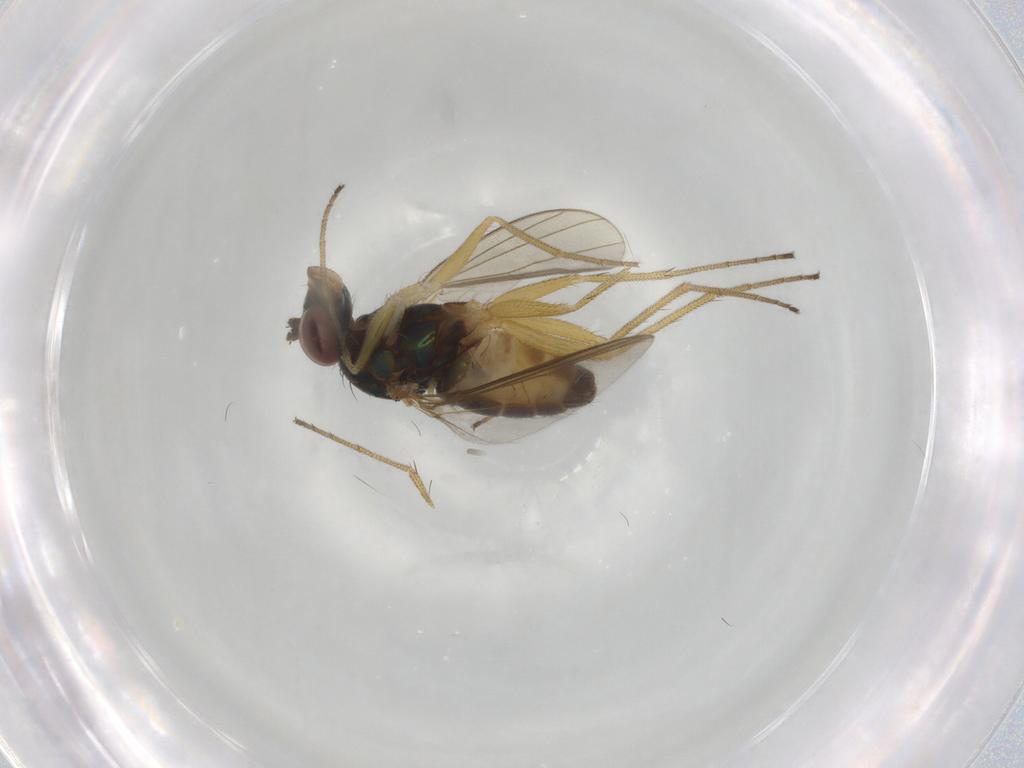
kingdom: Animalia
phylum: Arthropoda
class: Insecta
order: Diptera
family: Dolichopodidae
